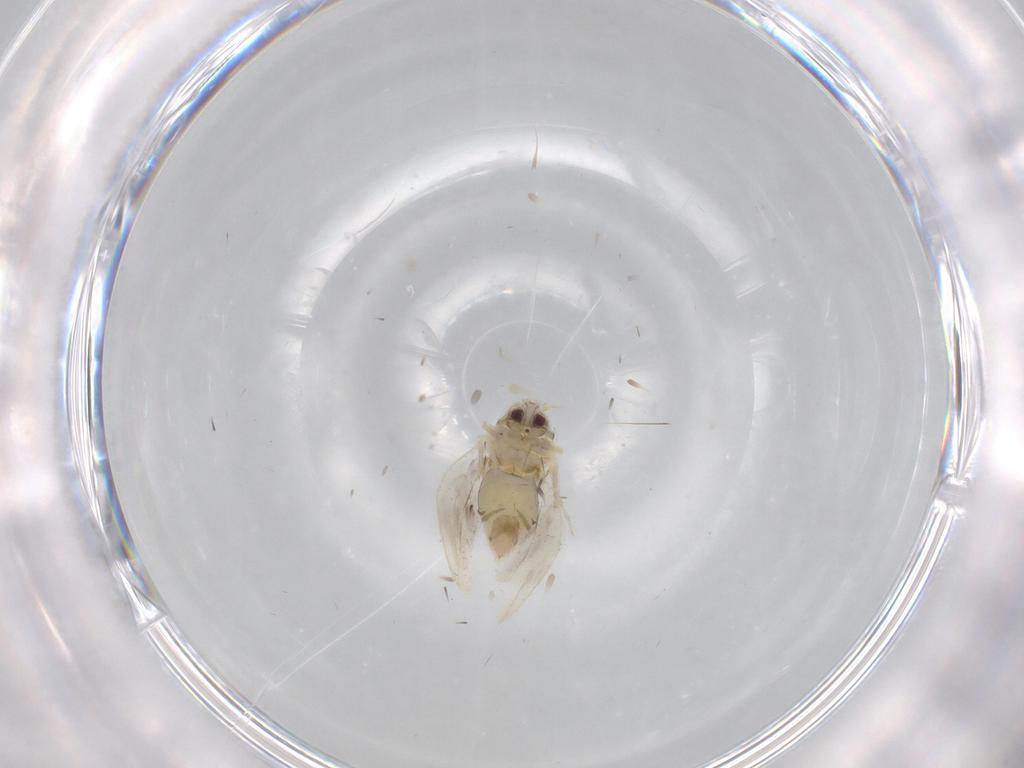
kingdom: Animalia
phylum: Arthropoda
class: Insecta
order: Hemiptera
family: Aleyrodidae
